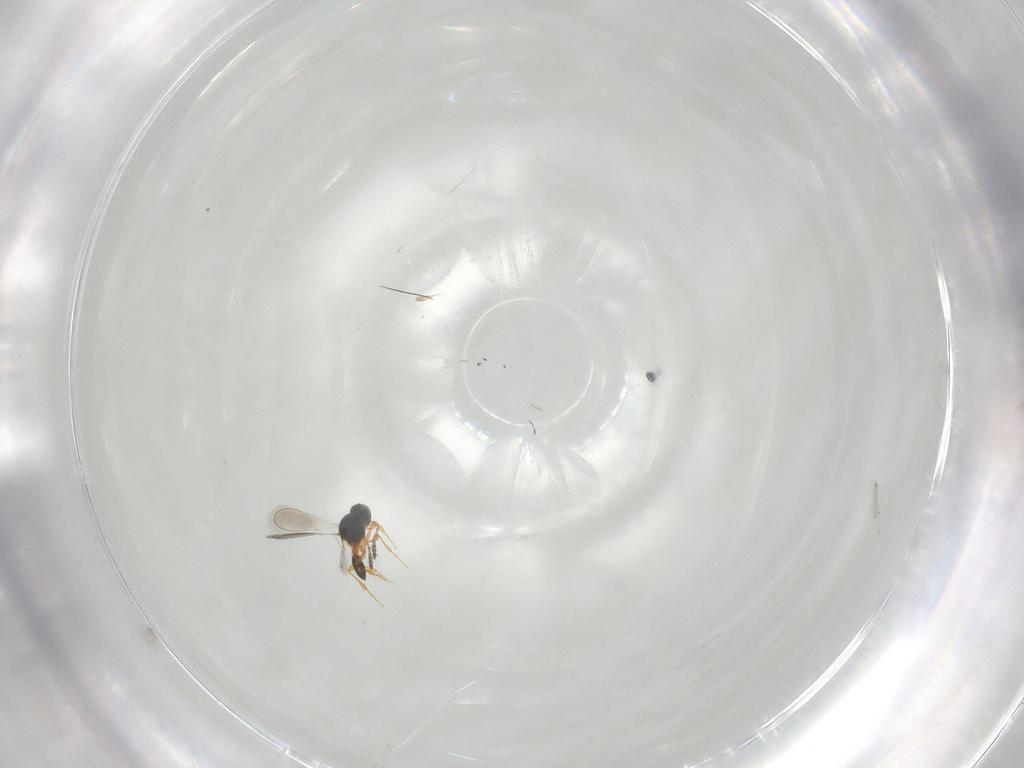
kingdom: Animalia
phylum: Arthropoda
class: Insecta
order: Hymenoptera
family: Platygastridae
